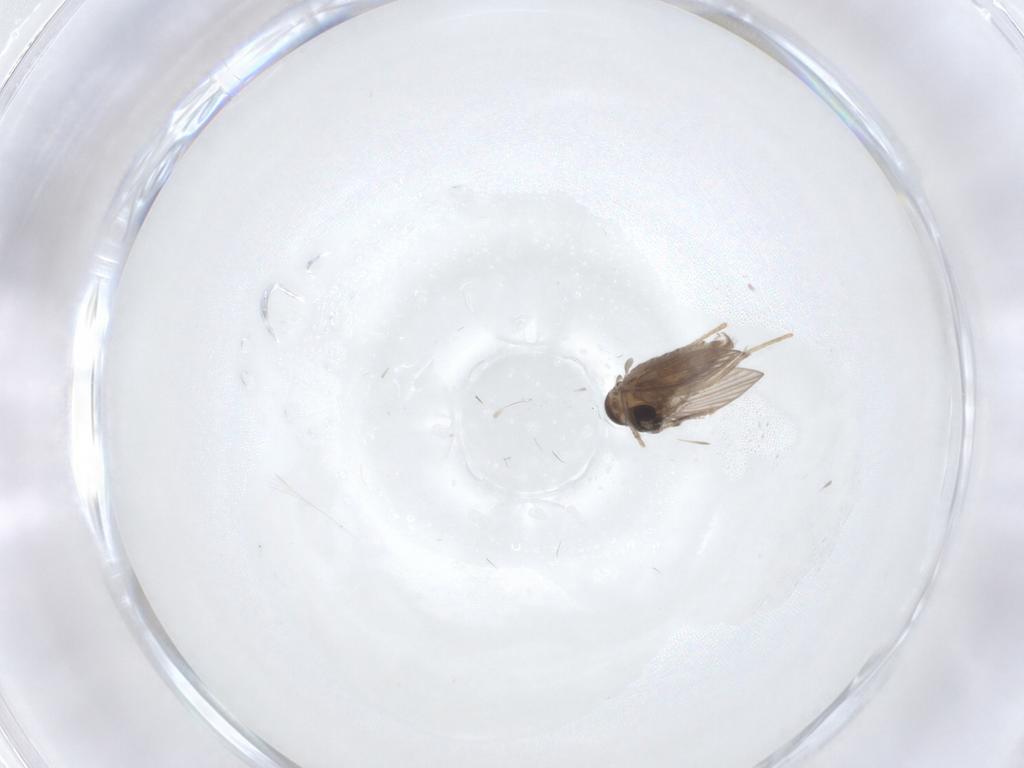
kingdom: Animalia
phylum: Arthropoda
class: Insecta
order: Diptera
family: Psychodidae
